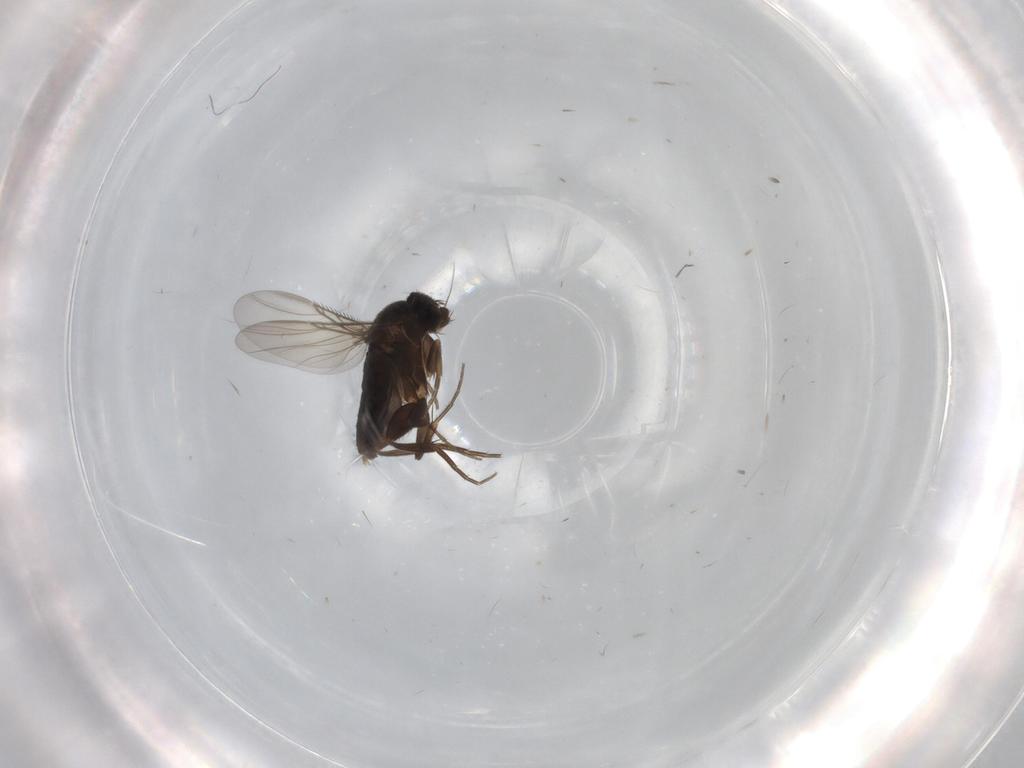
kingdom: Animalia
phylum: Arthropoda
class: Insecta
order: Diptera
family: Phoridae
